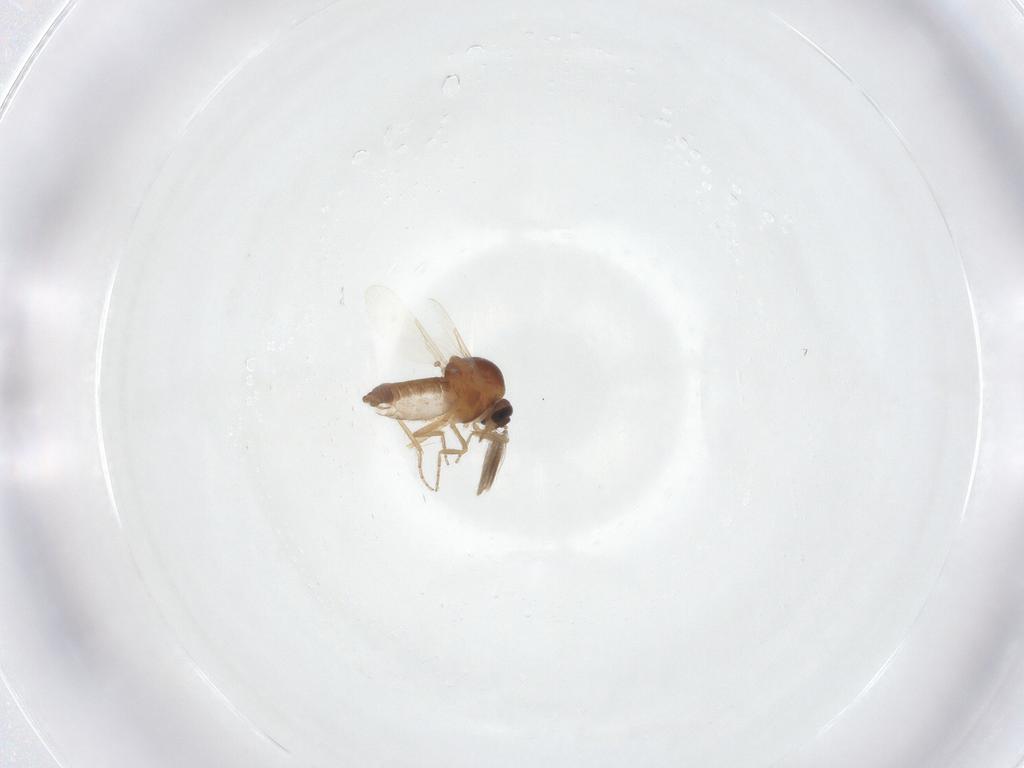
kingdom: Animalia
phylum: Arthropoda
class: Insecta
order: Diptera
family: Ceratopogonidae
